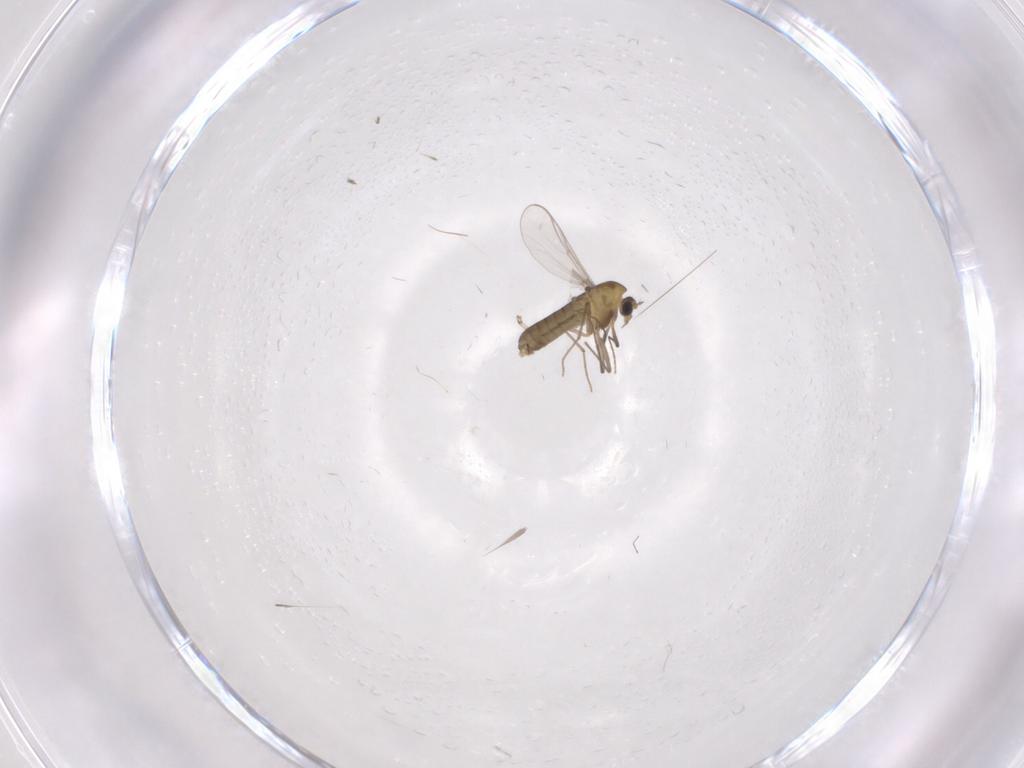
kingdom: Animalia
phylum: Arthropoda
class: Insecta
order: Diptera
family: Chironomidae
